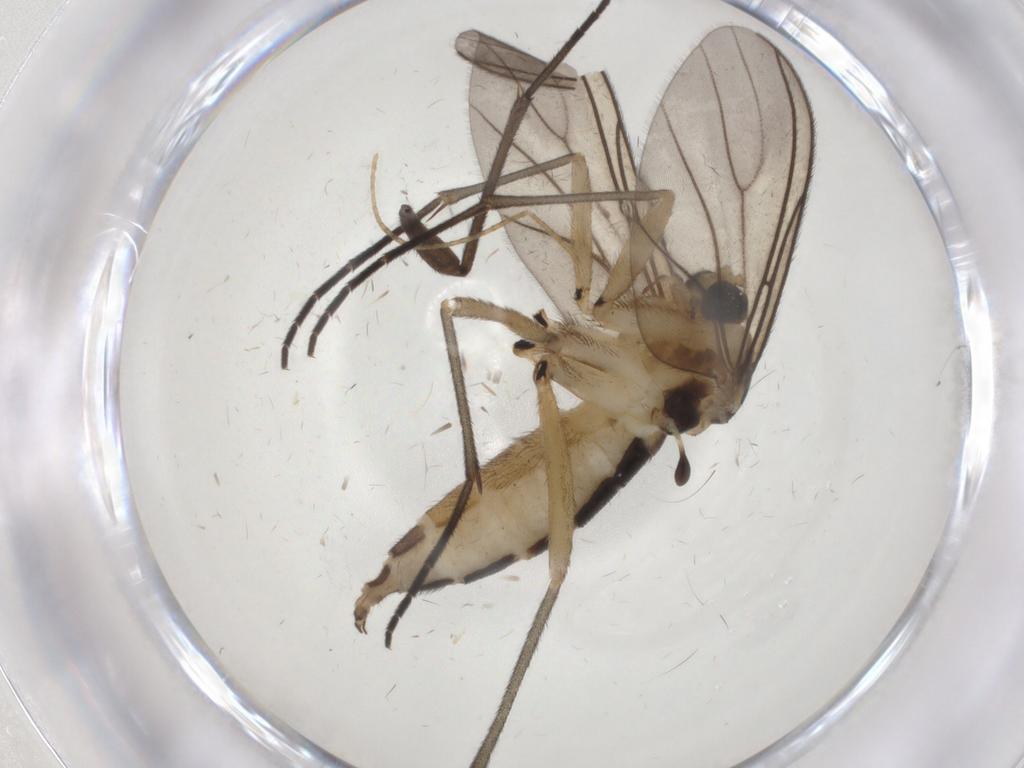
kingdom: Animalia
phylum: Arthropoda
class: Insecta
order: Diptera
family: Sciaridae
